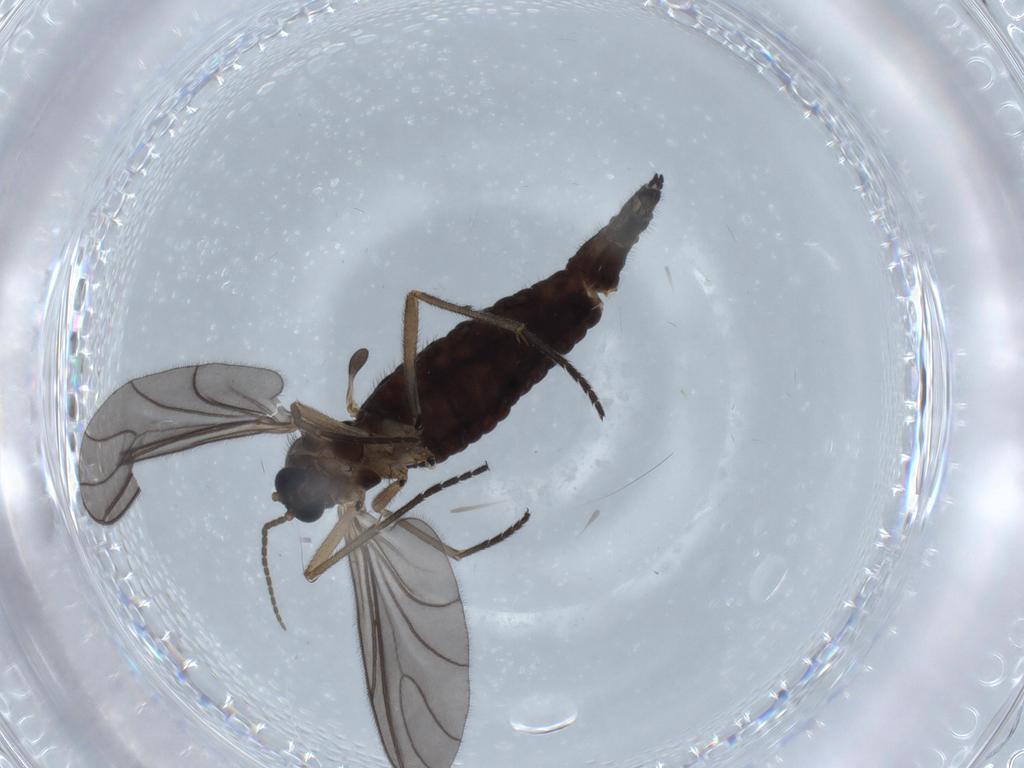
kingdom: Animalia
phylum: Arthropoda
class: Insecta
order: Diptera
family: Sciaridae
